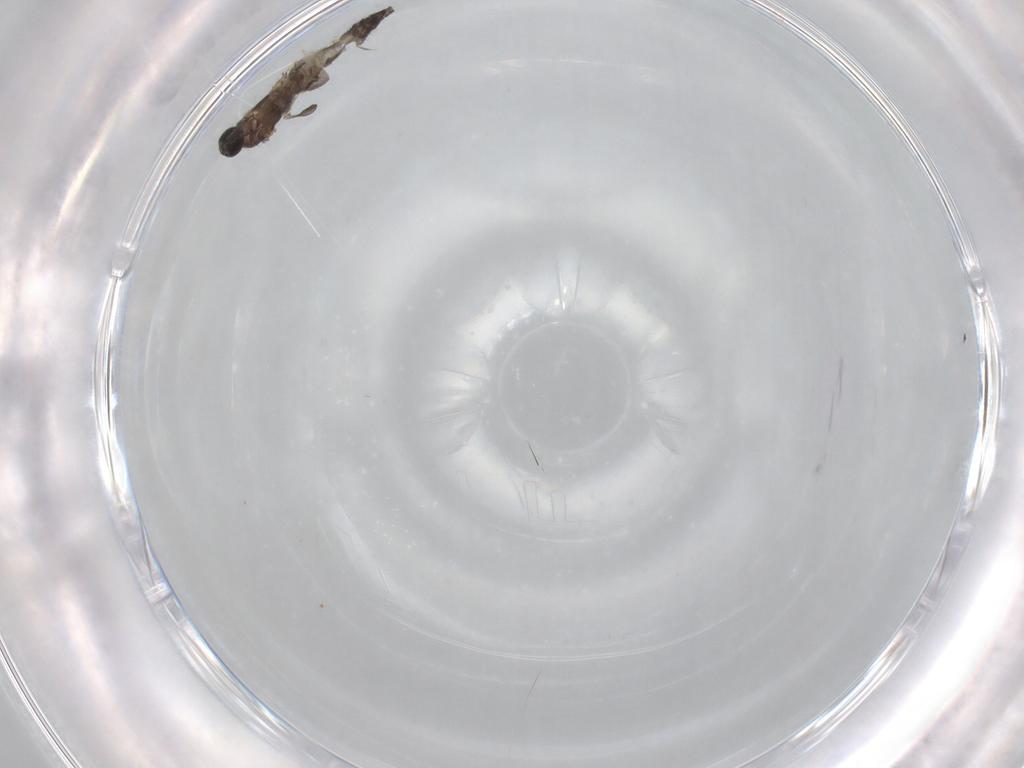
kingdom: Animalia
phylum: Arthropoda
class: Insecta
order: Diptera
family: Sciaridae
